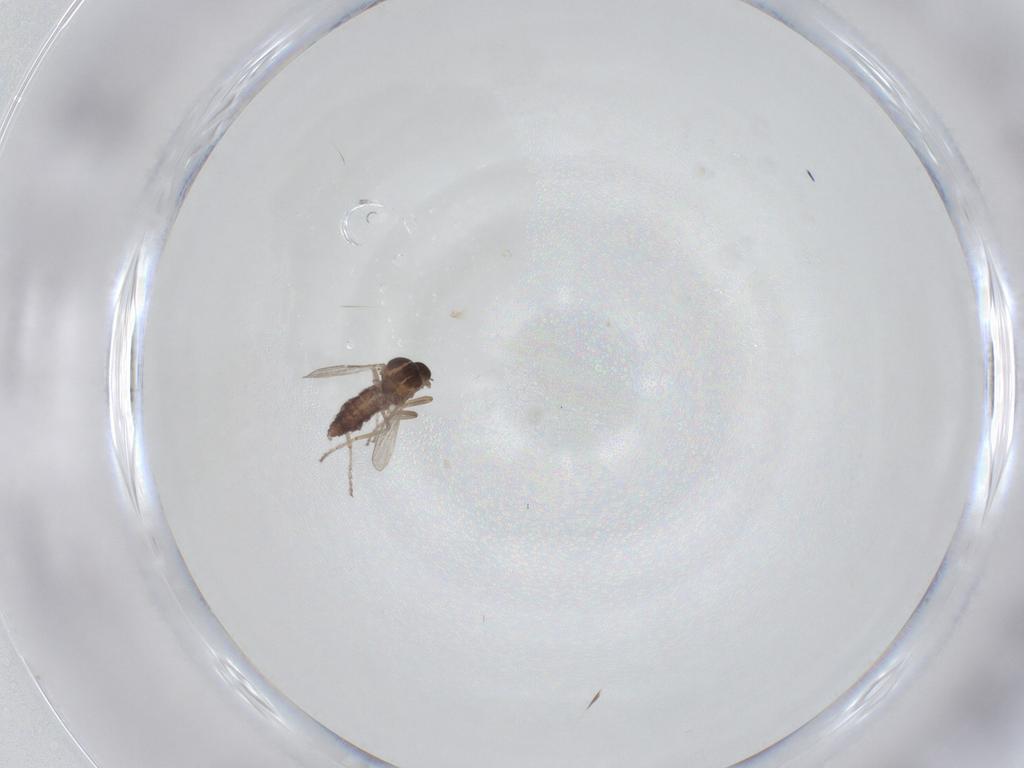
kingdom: Animalia
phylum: Arthropoda
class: Insecta
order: Diptera
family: Ceratopogonidae
